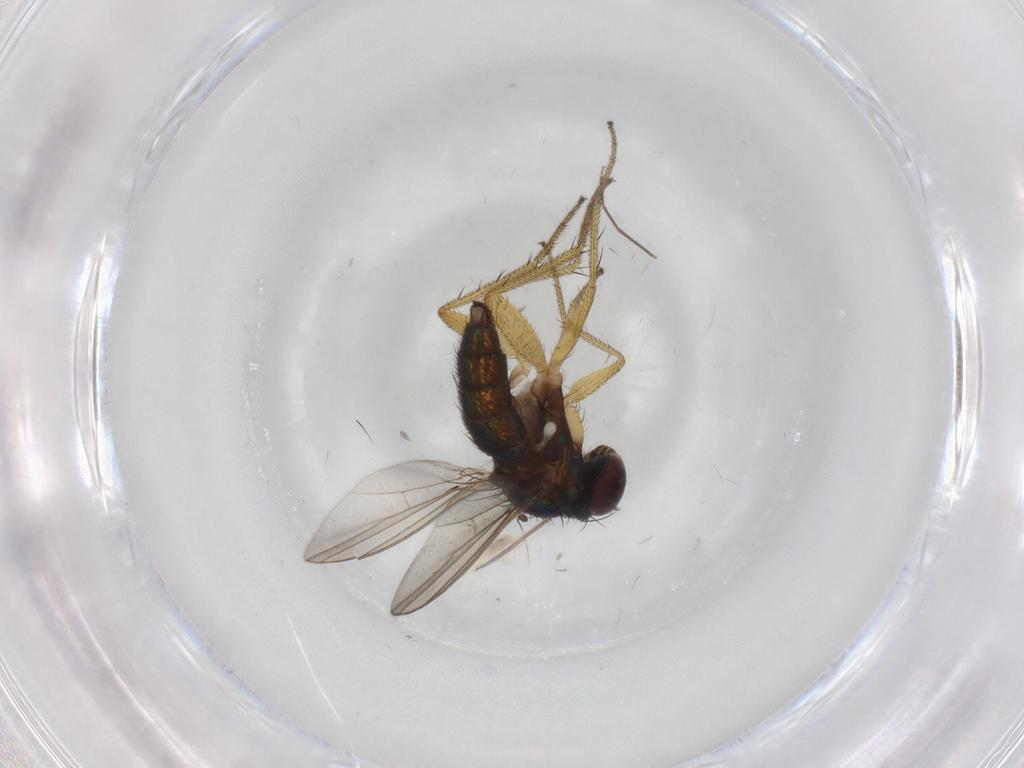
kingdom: Animalia
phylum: Arthropoda
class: Insecta
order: Diptera
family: Chironomidae
